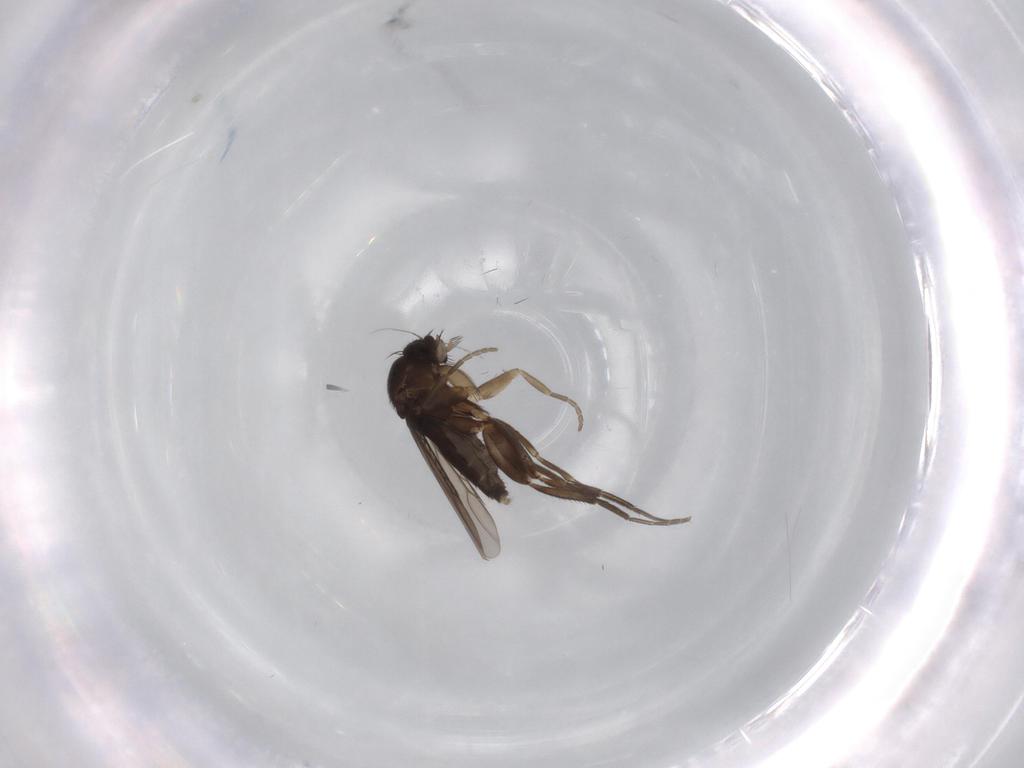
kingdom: Animalia
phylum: Arthropoda
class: Insecta
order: Diptera
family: Phoridae
